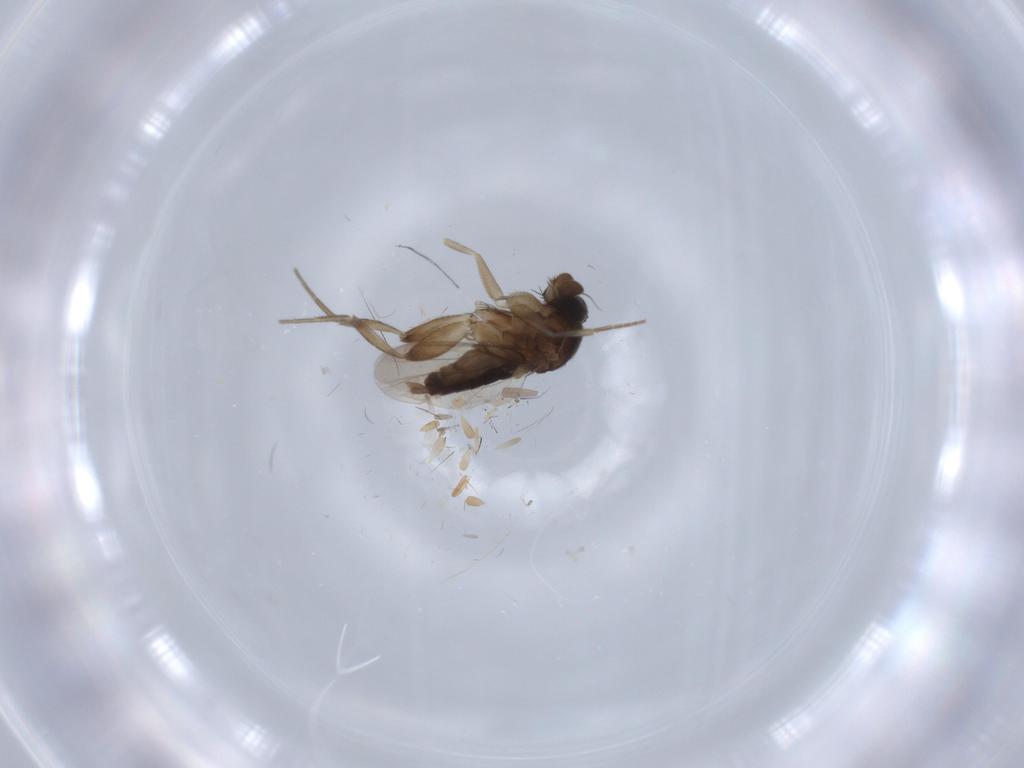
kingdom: Animalia
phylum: Arthropoda
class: Insecta
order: Diptera
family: Phoridae
